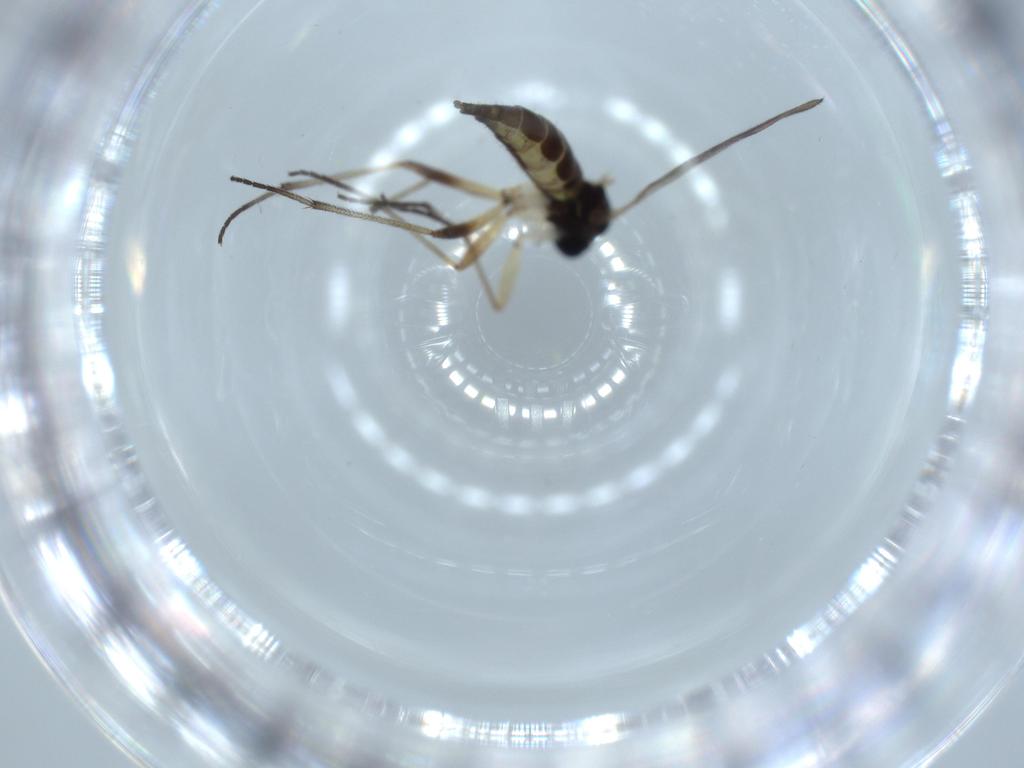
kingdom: Animalia
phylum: Arthropoda
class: Insecta
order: Diptera
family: Sciaridae
